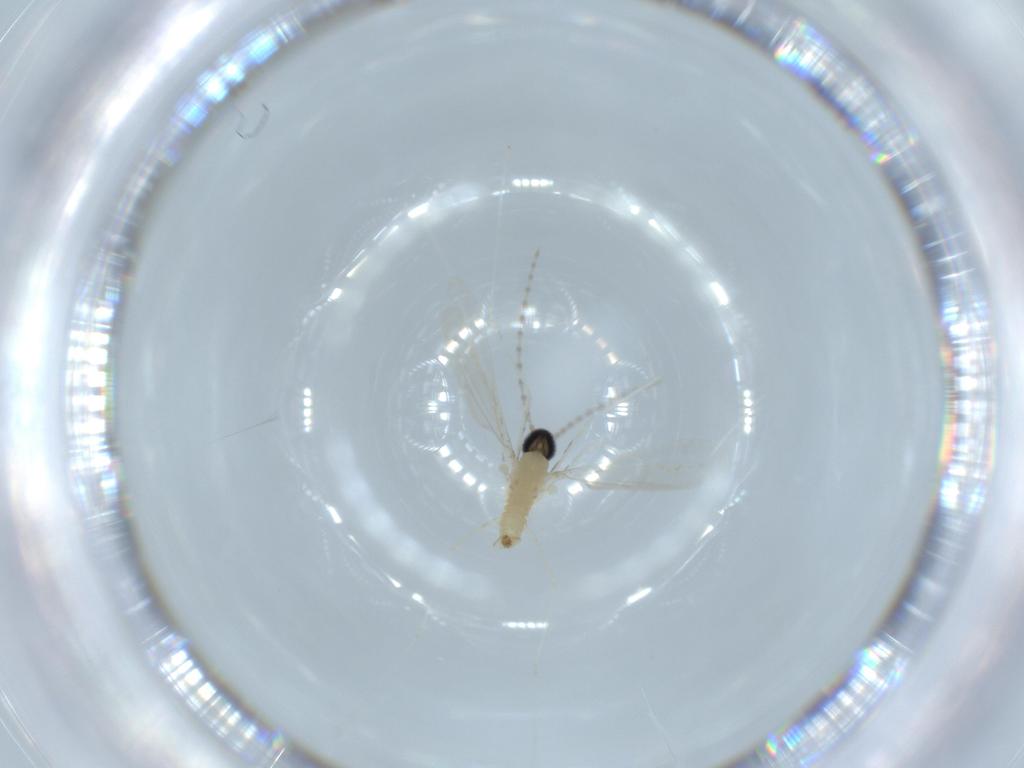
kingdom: Animalia
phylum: Arthropoda
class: Insecta
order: Diptera
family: Cecidomyiidae
